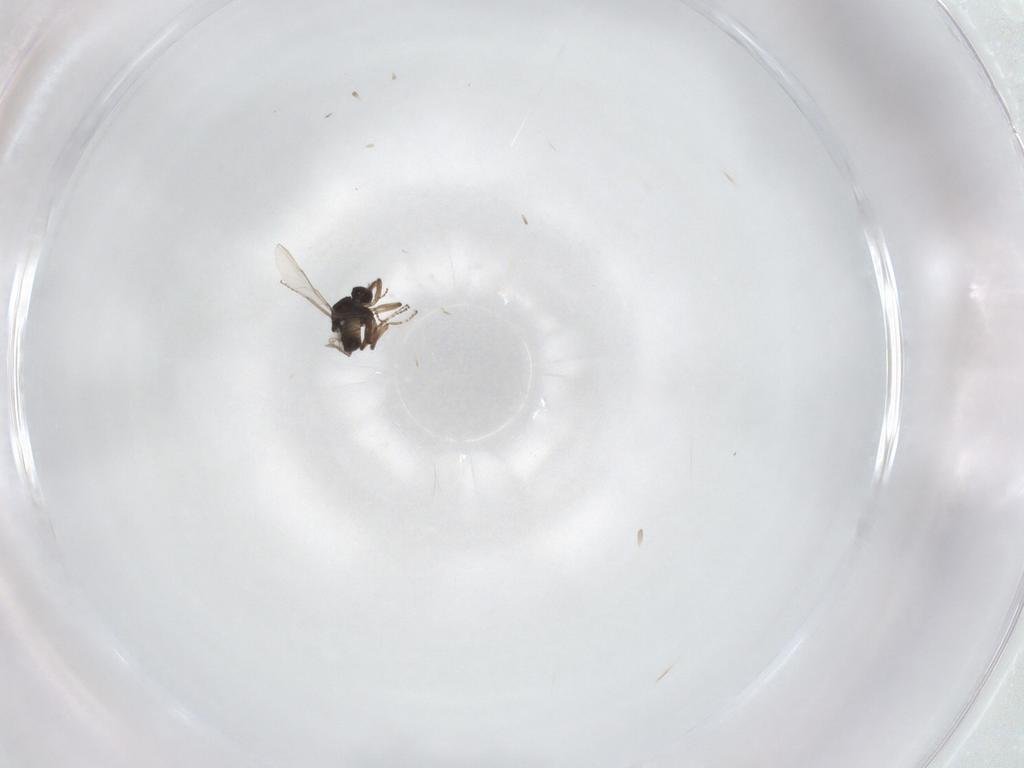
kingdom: Animalia
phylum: Arthropoda
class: Insecta
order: Diptera
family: Ceratopogonidae
